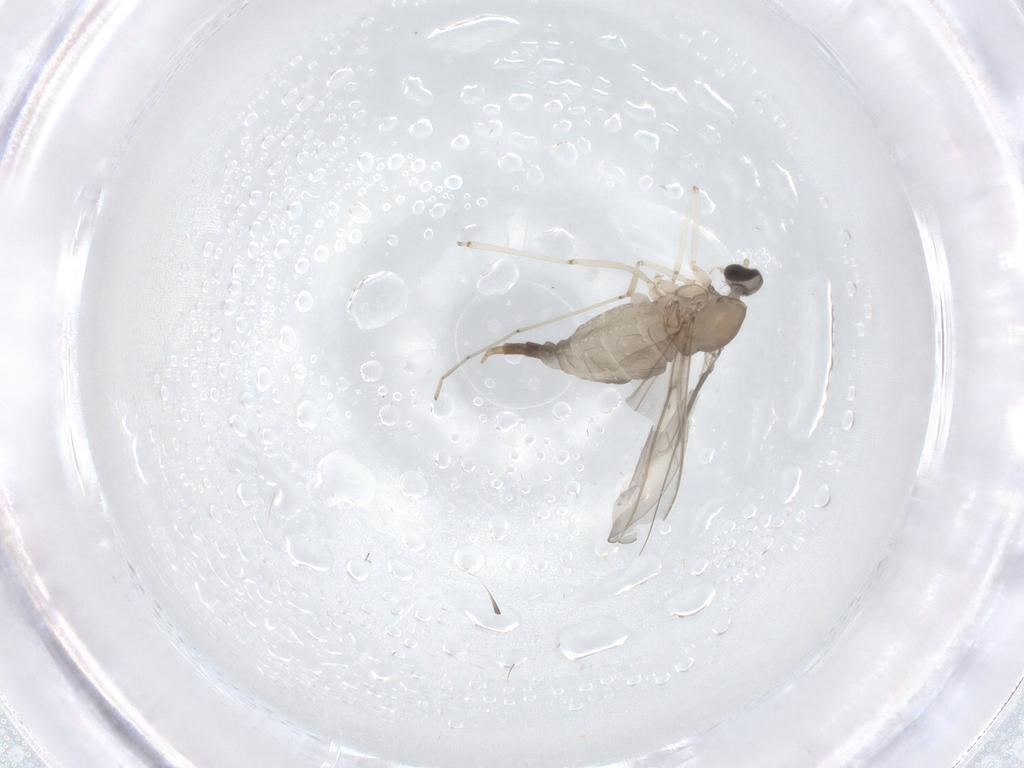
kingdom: Animalia
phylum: Arthropoda
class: Insecta
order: Diptera
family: Cecidomyiidae
